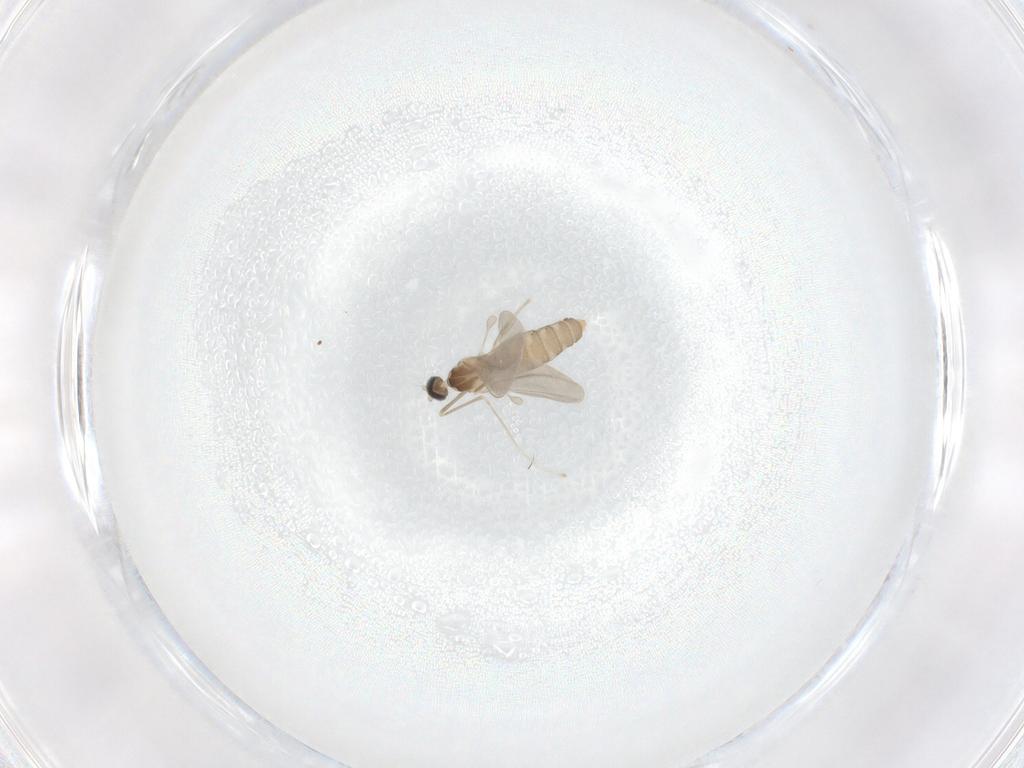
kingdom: Animalia
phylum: Arthropoda
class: Insecta
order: Diptera
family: Cecidomyiidae
